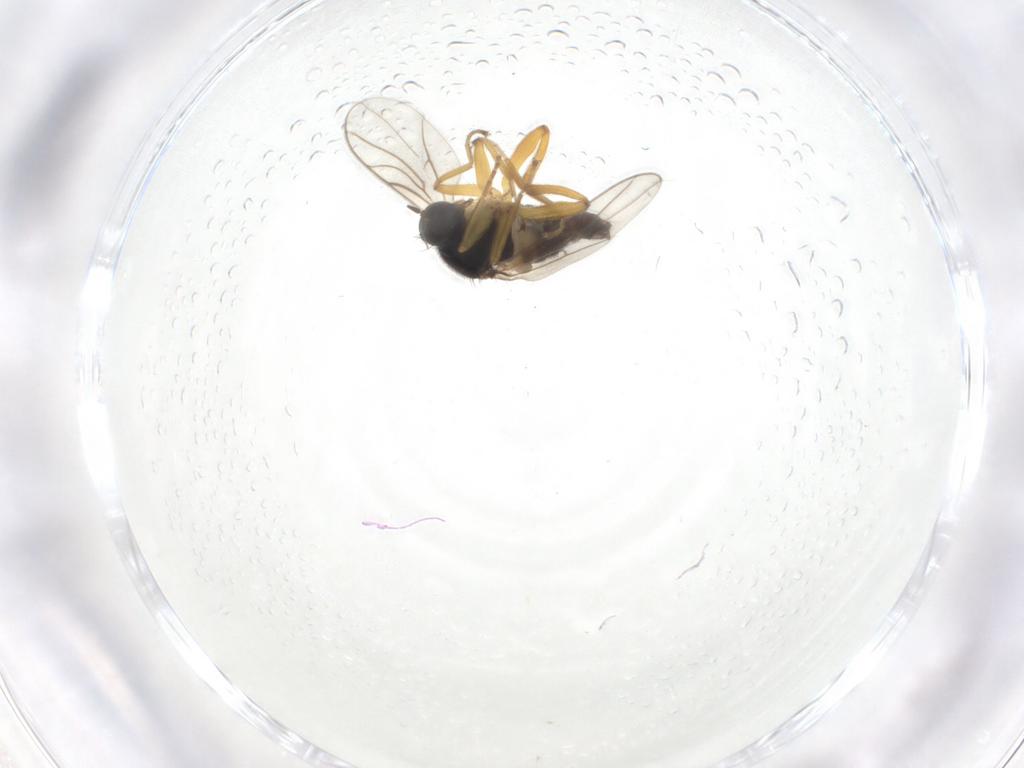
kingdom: Animalia
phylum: Arthropoda
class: Insecta
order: Diptera
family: Hybotidae
